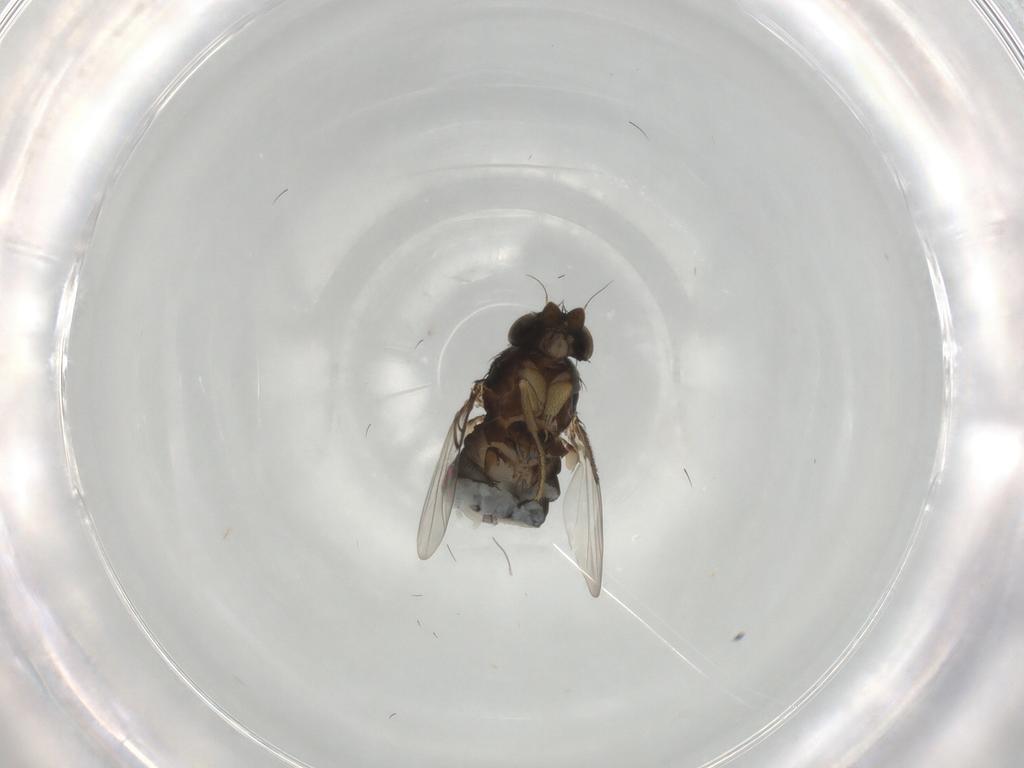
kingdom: Animalia
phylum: Arthropoda
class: Insecta
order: Diptera
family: Phoridae
